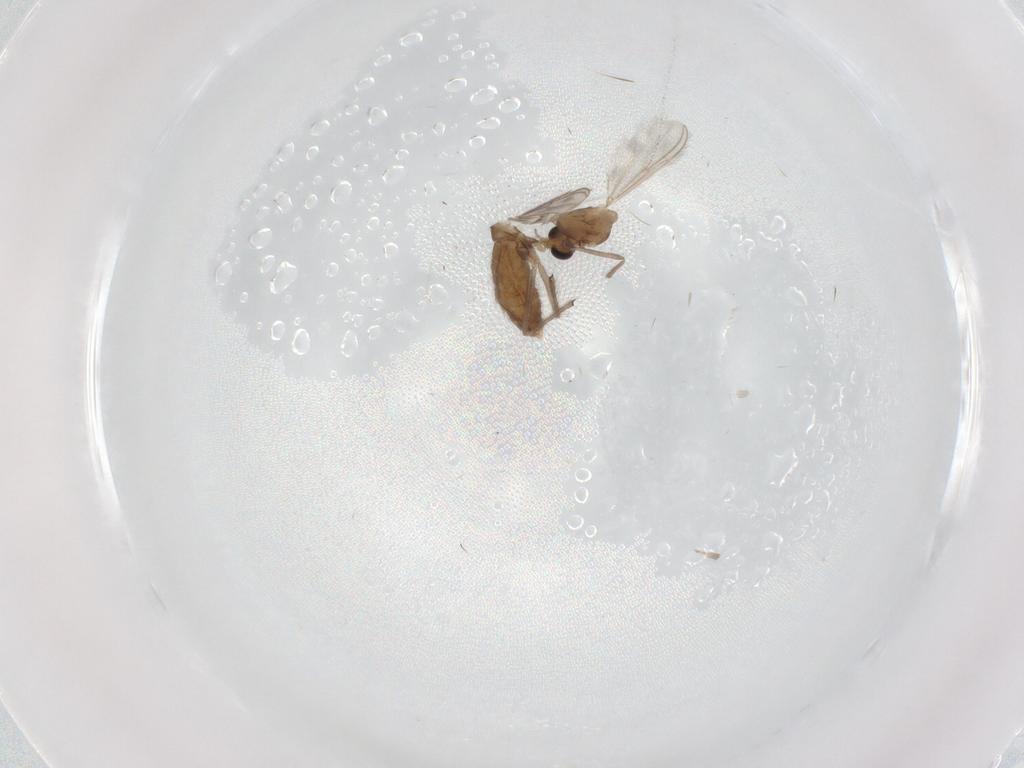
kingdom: Animalia
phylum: Arthropoda
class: Insecta
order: Diptera
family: Chironomidae
